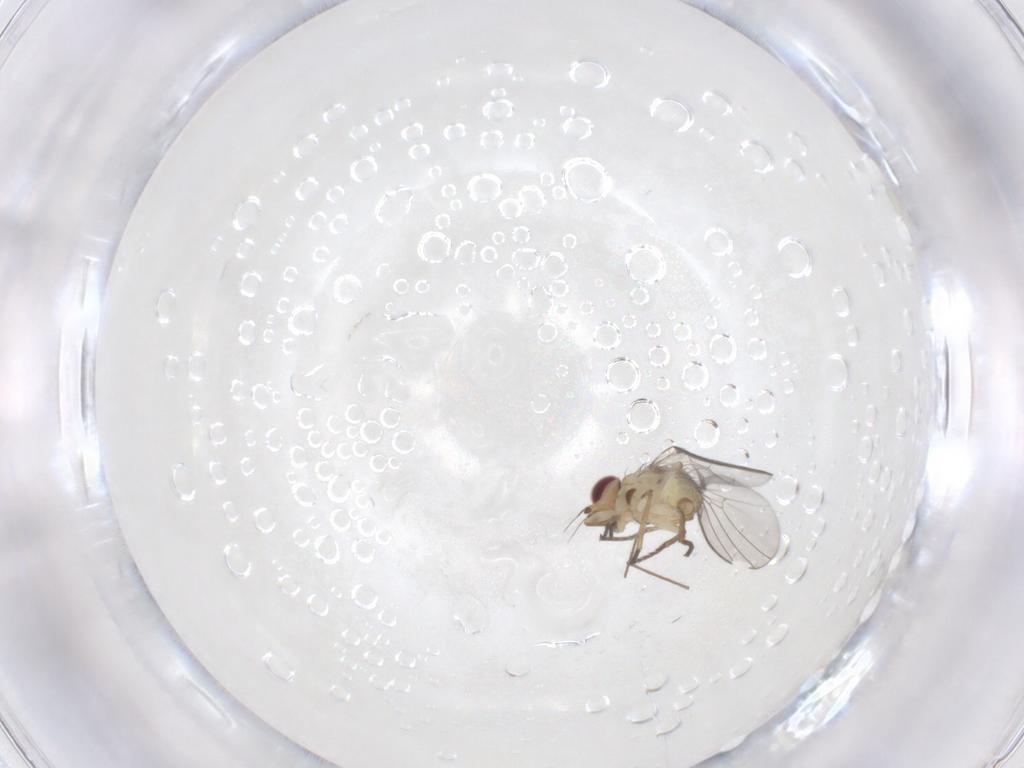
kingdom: Animalia
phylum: Arthropoda
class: Insecta
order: Diptera
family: Agromyzidae
